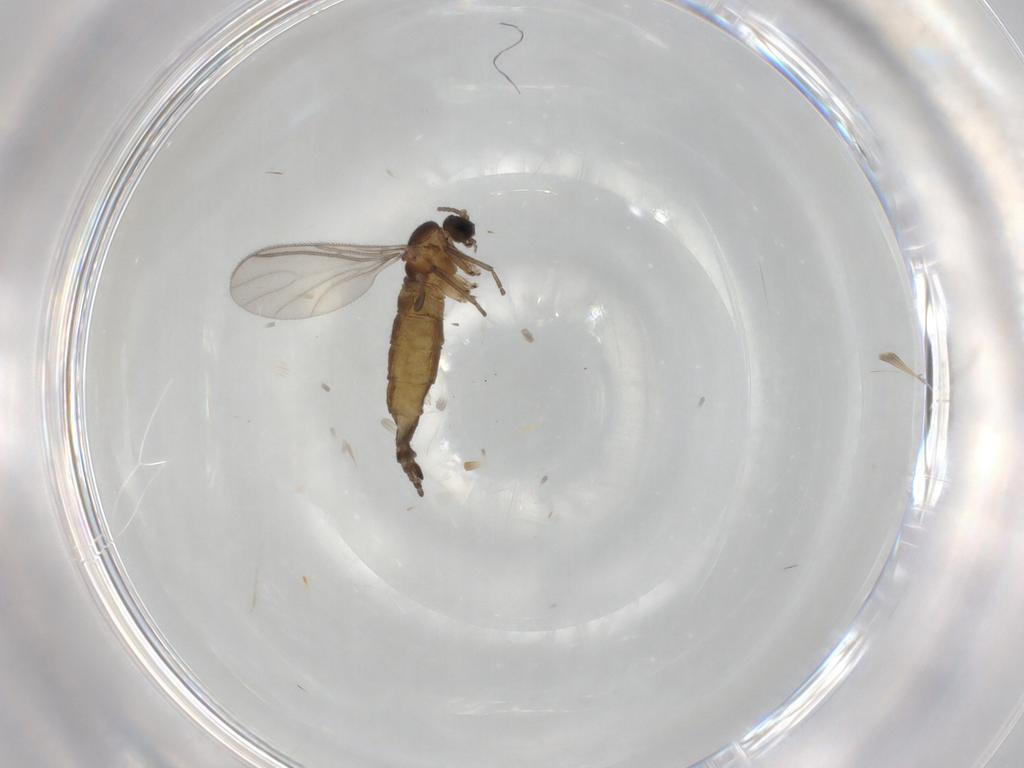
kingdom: Animalia
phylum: Arthropoda
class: Insecta
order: Diptera
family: Sciaridae
